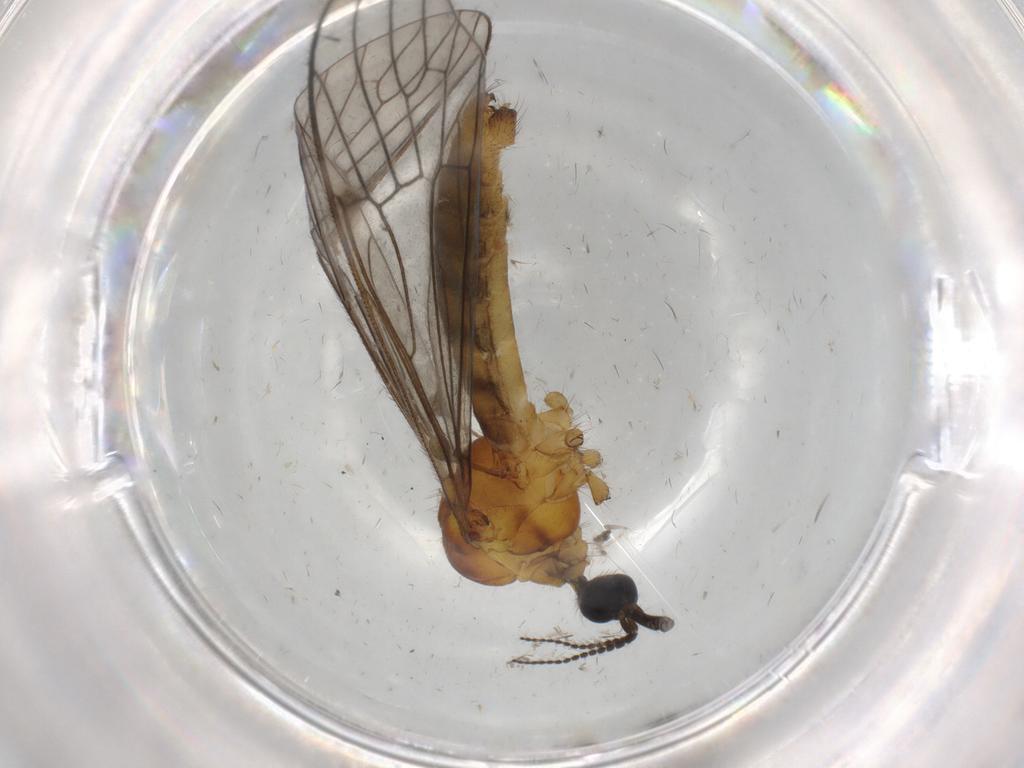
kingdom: Animalia
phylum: Arthropoda
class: Insecta
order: Diptera
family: Cecidomyiidae
